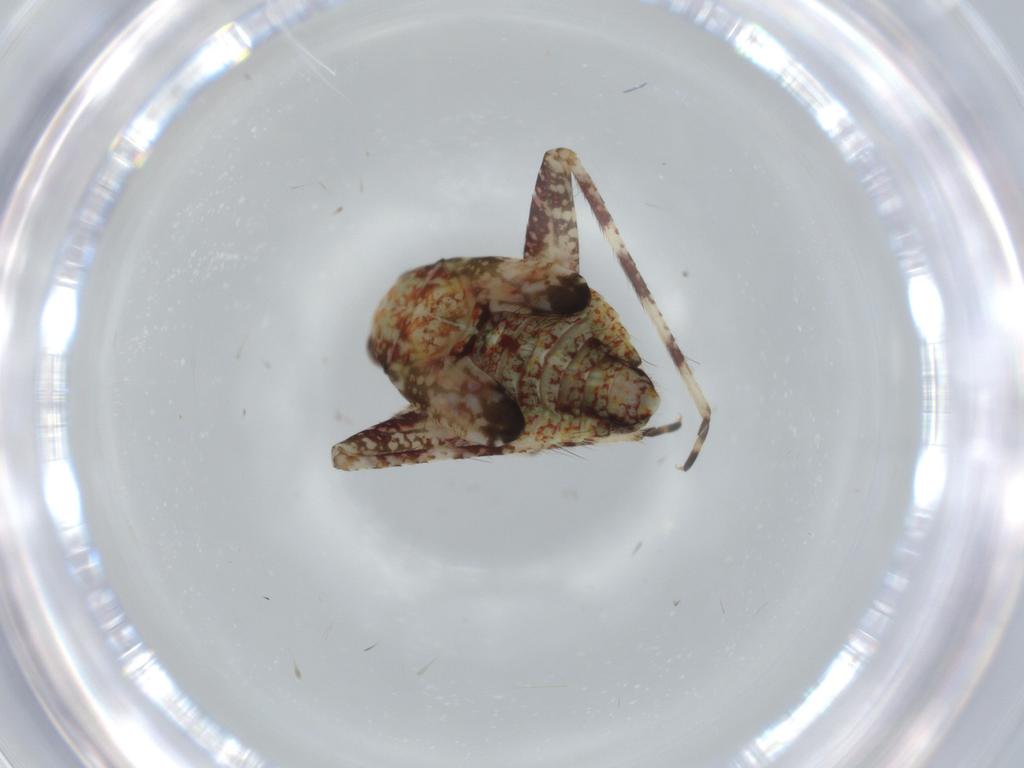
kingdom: Animalia
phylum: Arthropoda
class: Insecta
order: Hemiptera
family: Miridae
